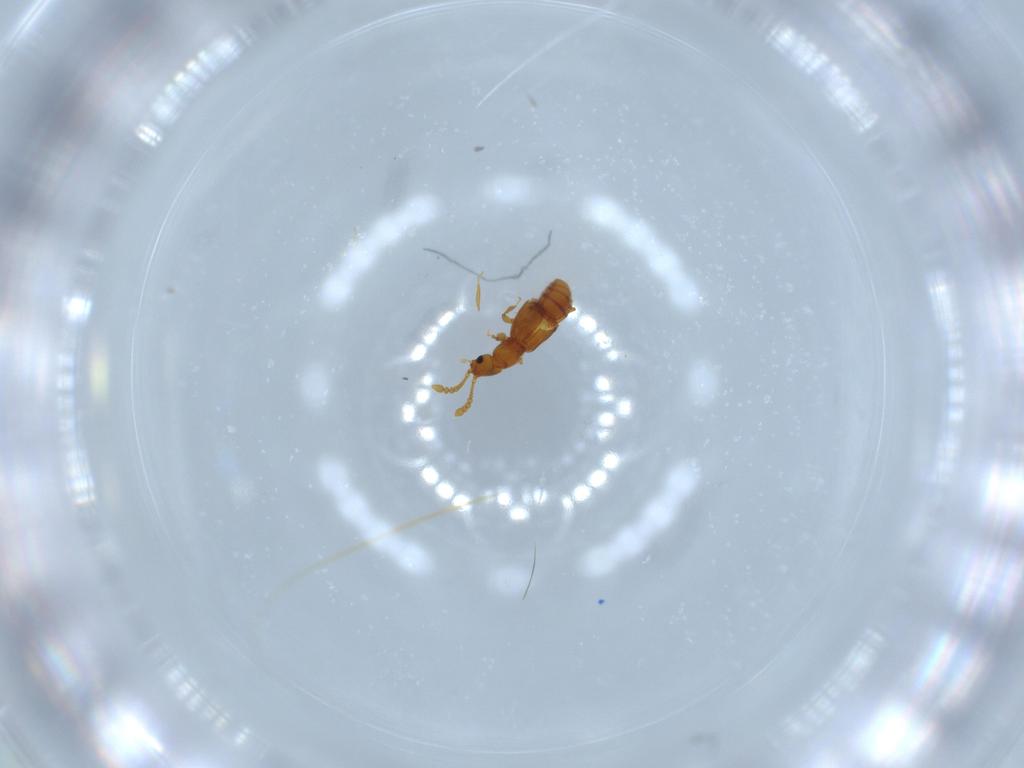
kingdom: Animalia
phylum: Arthropoda
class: Insecta
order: Coleoptera
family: Staphylinidae
